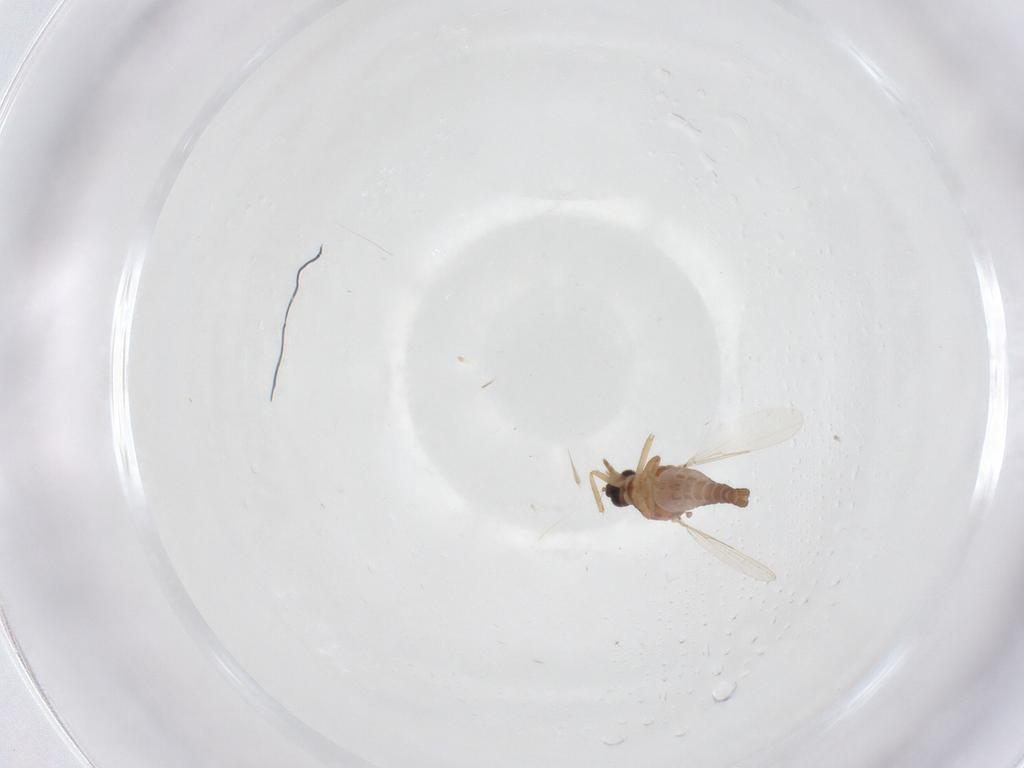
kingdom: Animalia
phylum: Arthropoda
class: Insecta
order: Diptera
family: Ceratopogonidae
